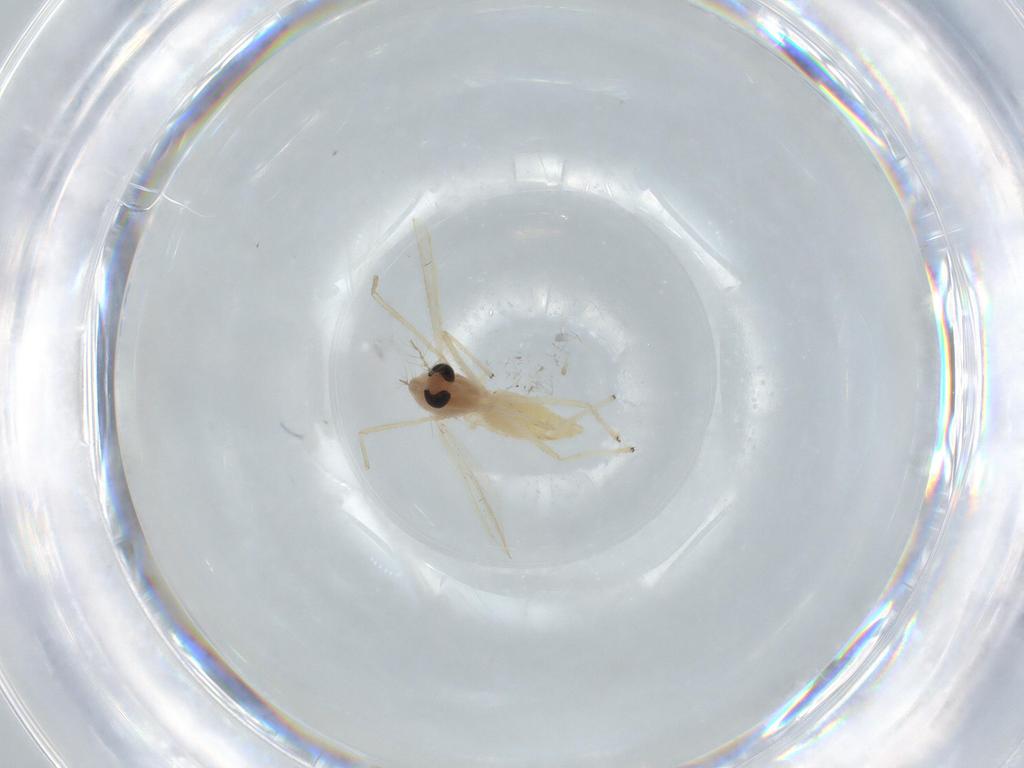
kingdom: Animalia
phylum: Arthropoda
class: Insecta
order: Diptera
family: Chironomidae
